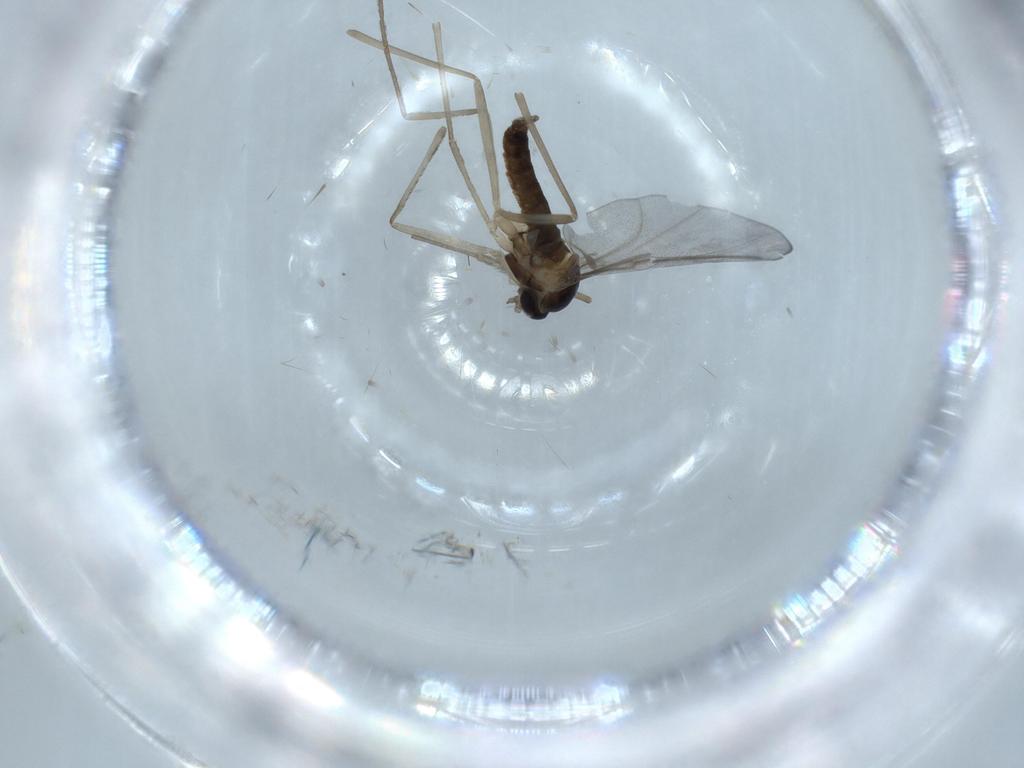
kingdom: Animalia
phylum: Arthropoda
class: Insecta
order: Diptera
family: Cecidomyiidae
